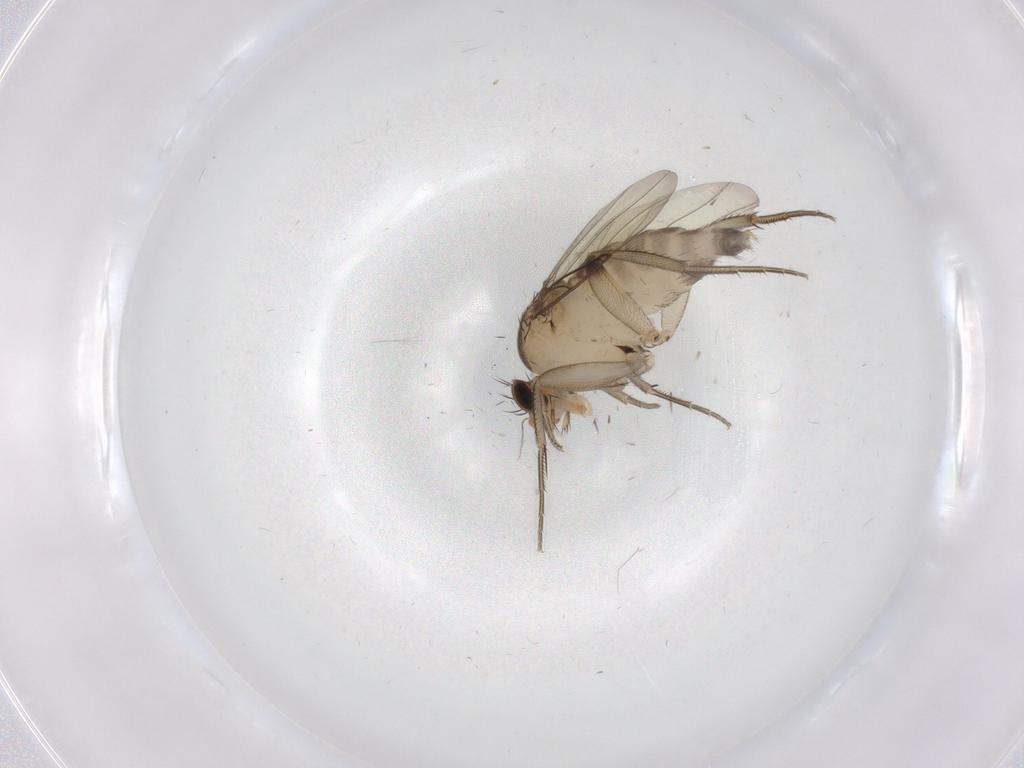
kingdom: Animalia
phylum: Arthropoda
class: Insecta
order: Diptera
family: Phoridae
